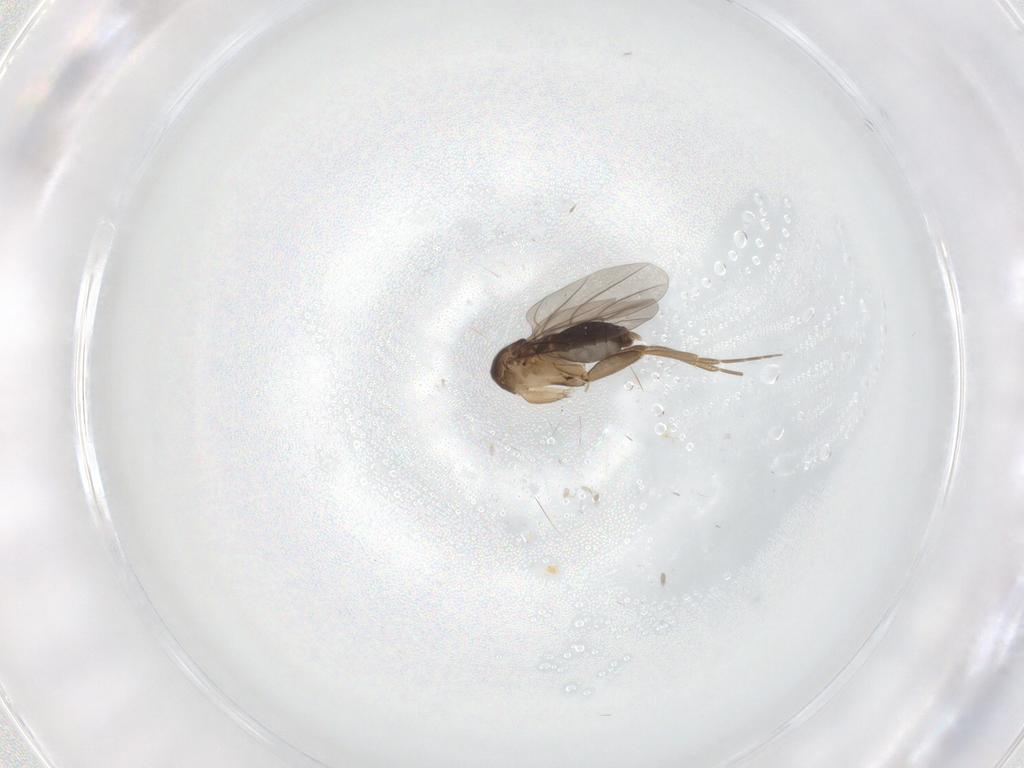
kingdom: Animalia
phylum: Arthropoda
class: Insecta
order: Diptera
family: Phoridae
